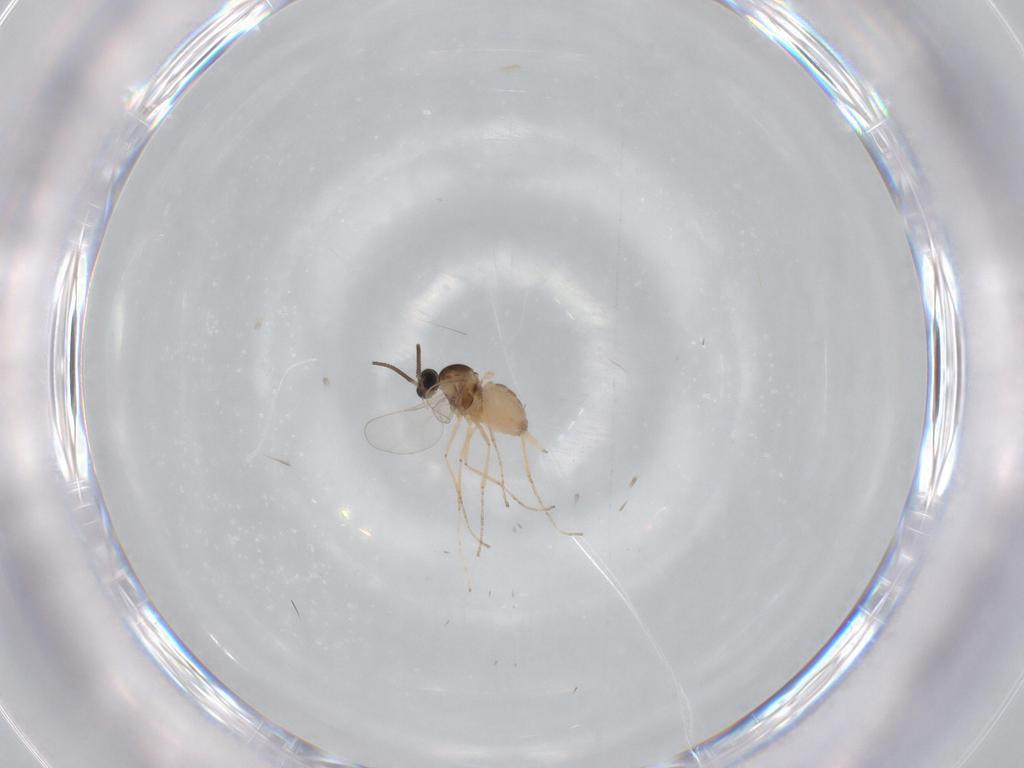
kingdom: Animalia
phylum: Arthropoda
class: Insecta
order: Diptera
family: Cecidomyiidae
